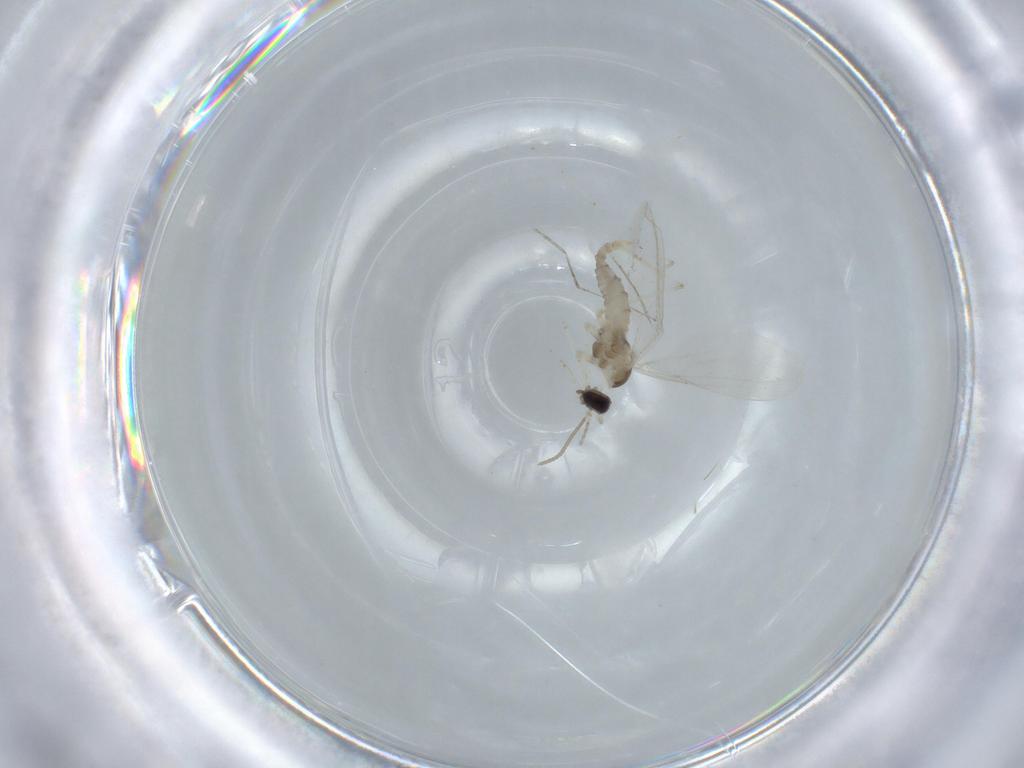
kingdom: Animalia
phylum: Arthropoda
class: Insecta
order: Diptera
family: Cecidomyiidae
